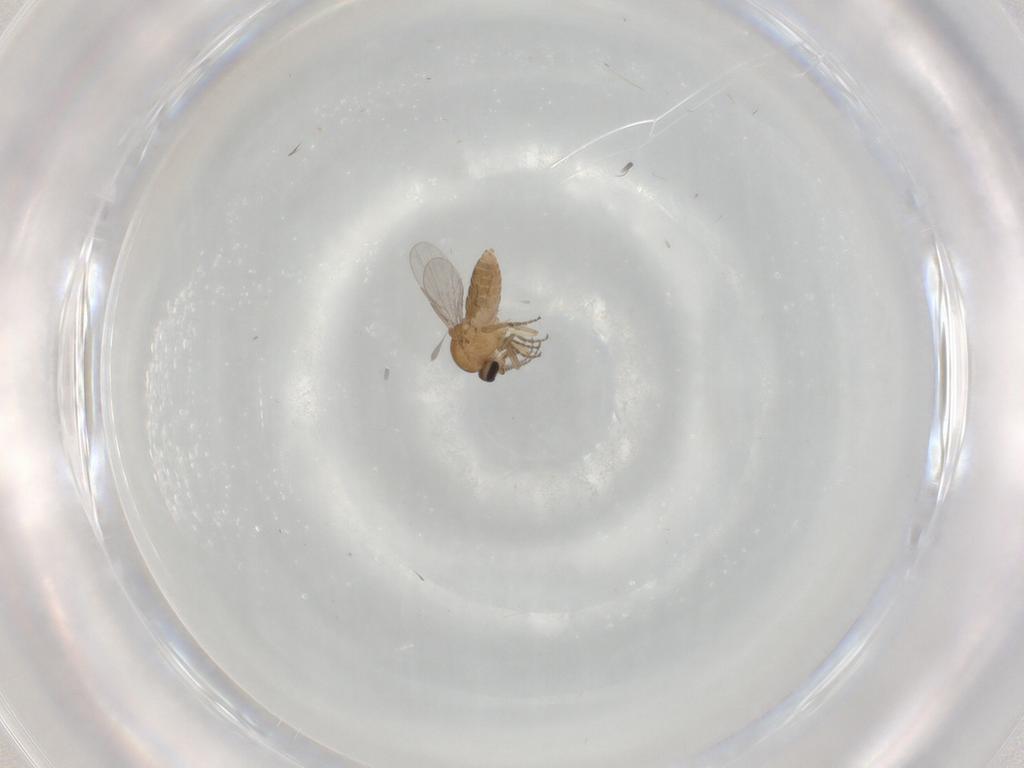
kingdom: Animalia
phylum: Arthropoda
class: Insecta
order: Diptera
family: Ceratopogonidae
